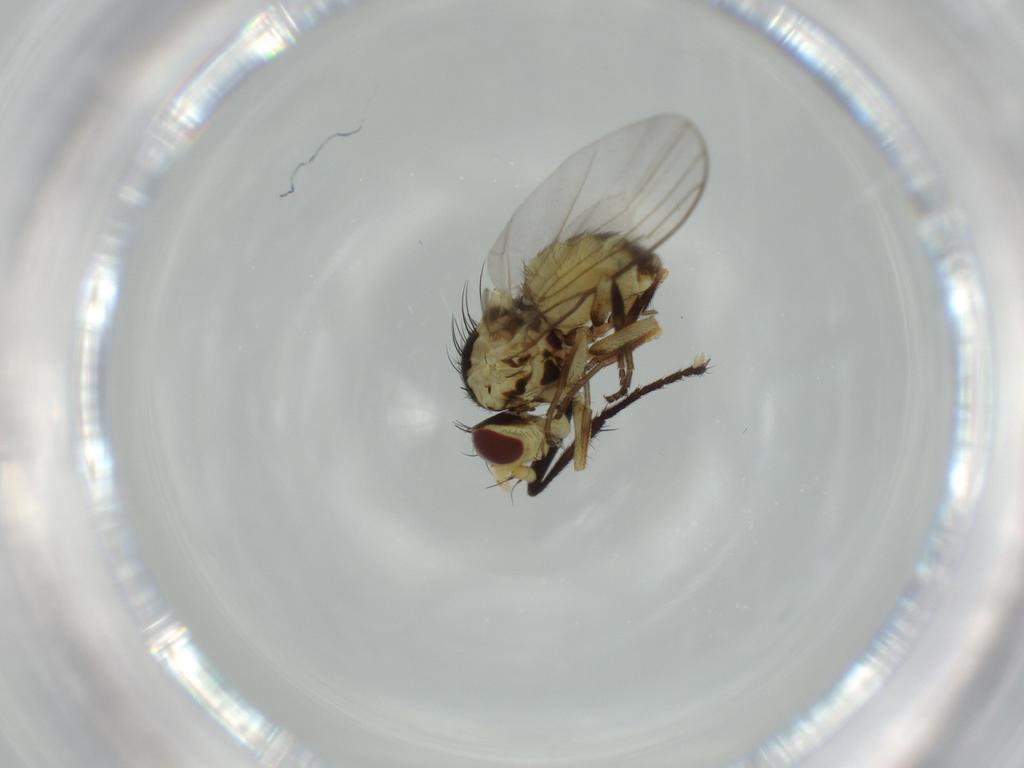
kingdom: Animalia
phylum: Arthropoda
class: Insecta
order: Diptera
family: Agromyzidae
